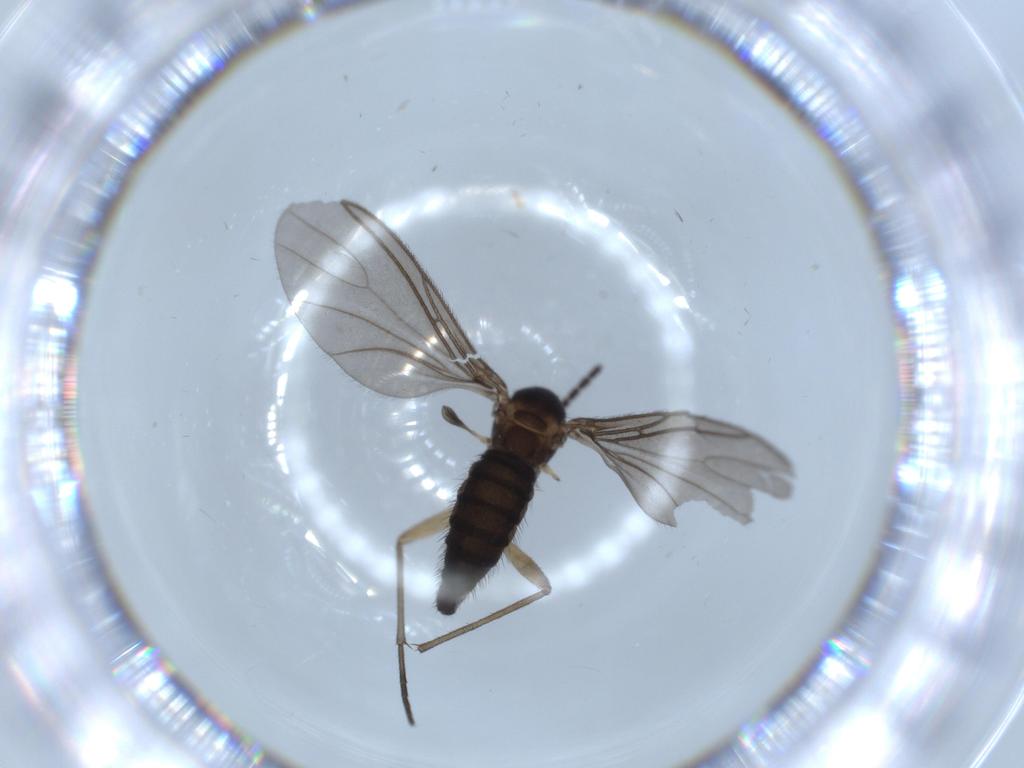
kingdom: Animalia
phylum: Arthropoda
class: Insecta
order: Diptera
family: Sciaridae
